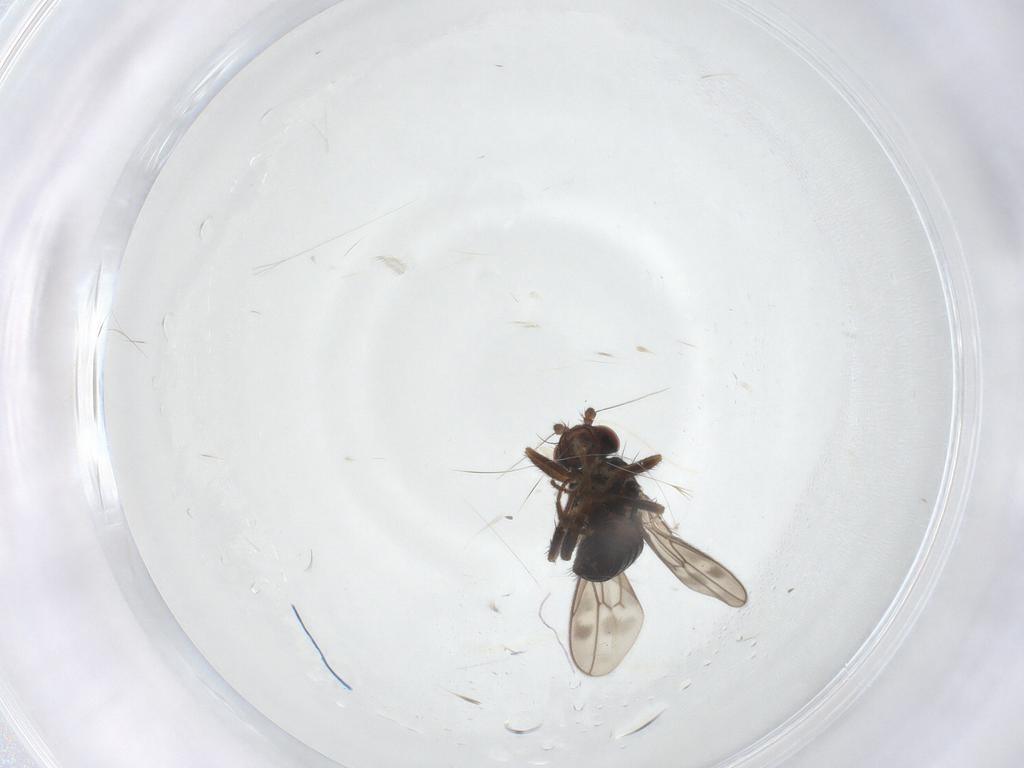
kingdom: Animalia
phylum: Arthropoda
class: Insecta
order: Diptera
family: Sphaeroceridae
